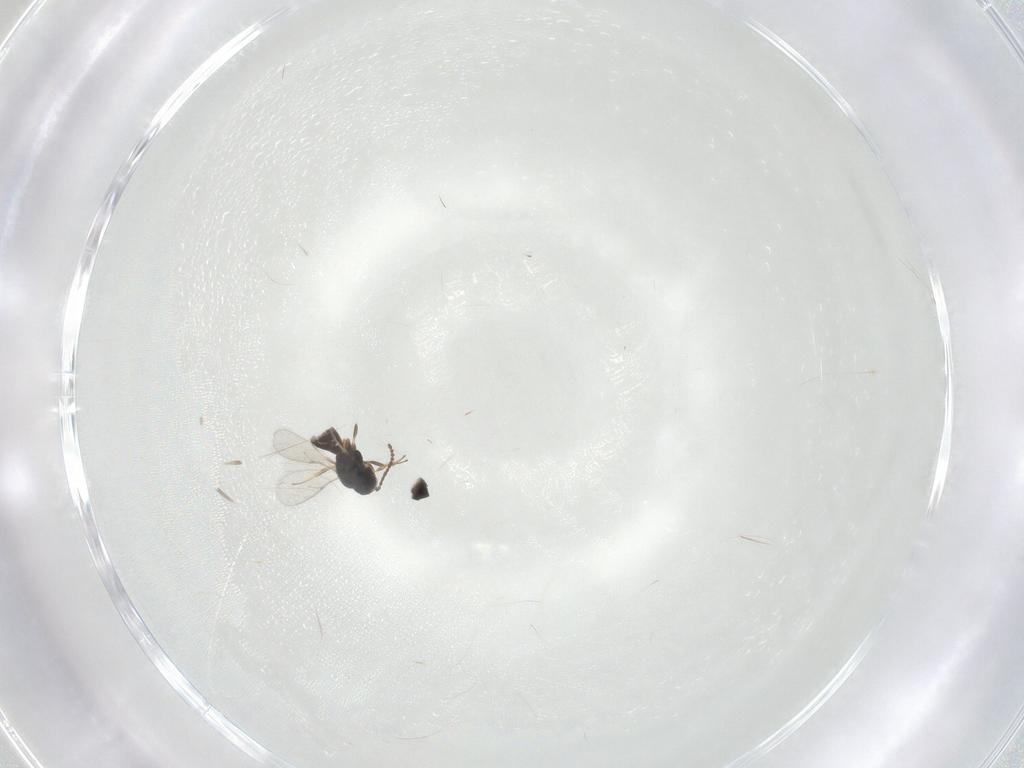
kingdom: Animalia
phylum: Arthropoda
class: Insecta
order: Hymenoptera
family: Scelionidae
